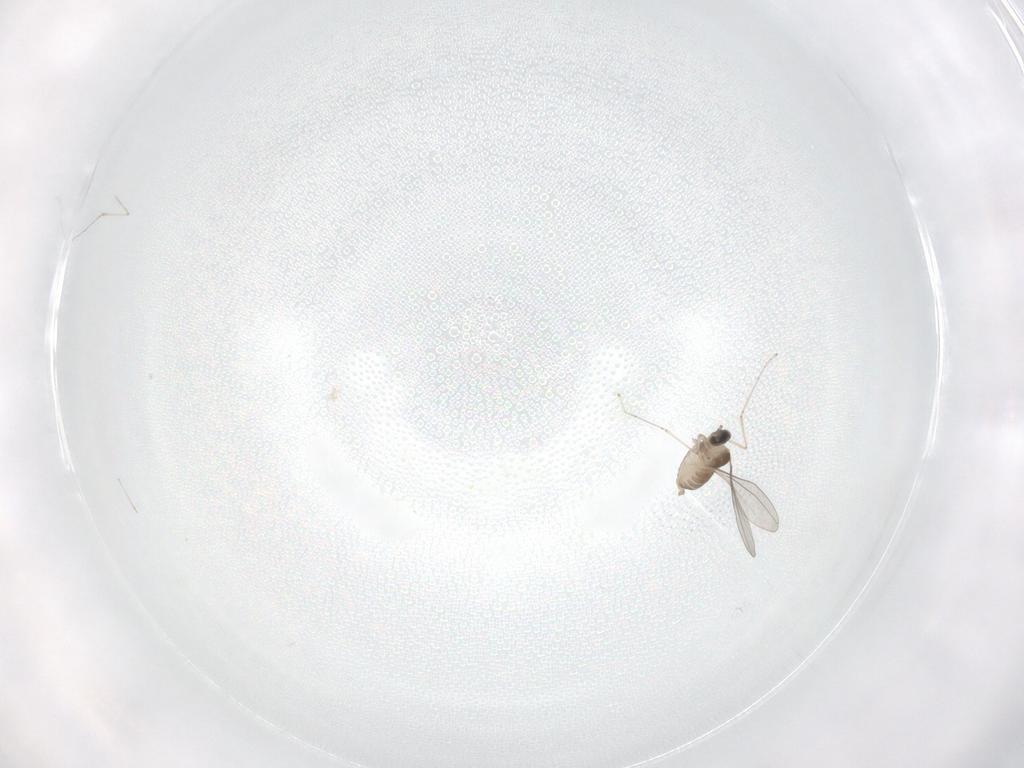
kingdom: Animalia
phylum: Arthropoda
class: Insecta
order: Diptera
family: Cecidomyiidae
